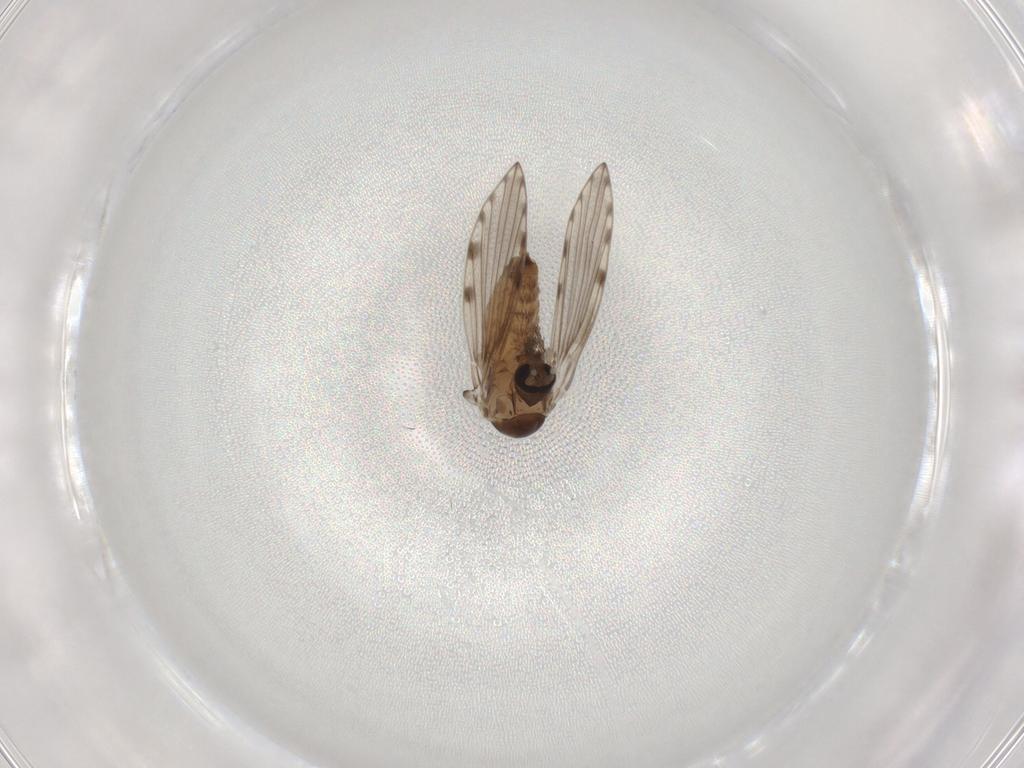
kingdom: Animalia
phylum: Arthropoda
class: Insecta
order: Diptera
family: Psychodidae
